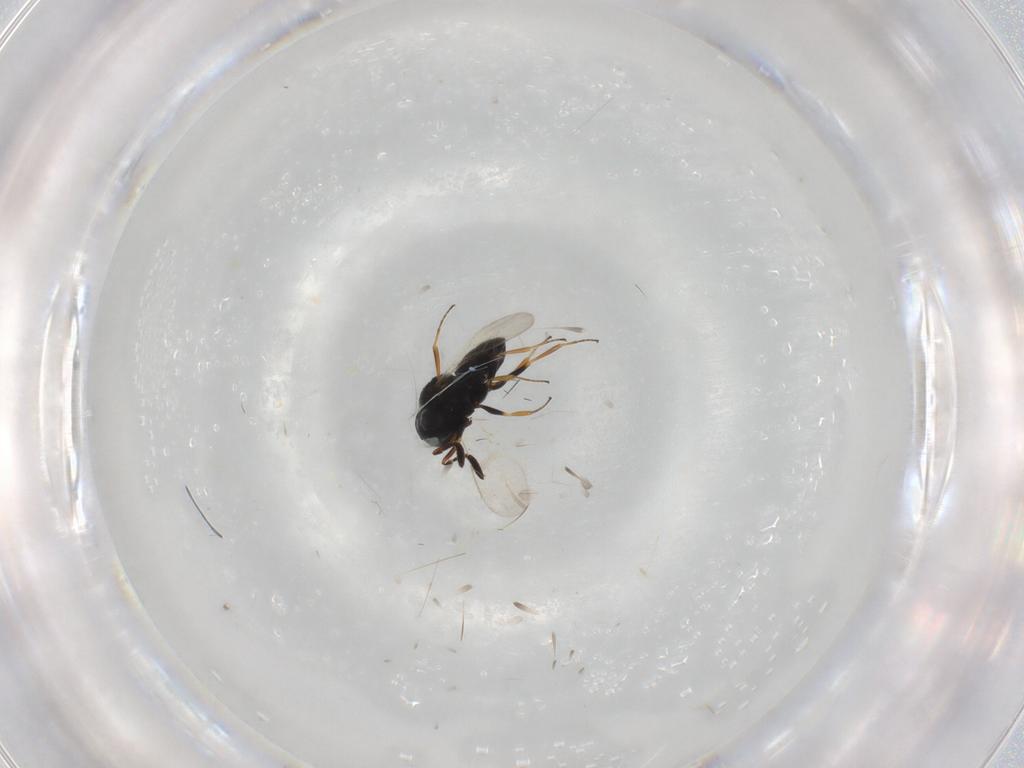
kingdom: Animalia
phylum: Arthropoda
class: Insecta
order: Coleoptera
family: Curculionidae
